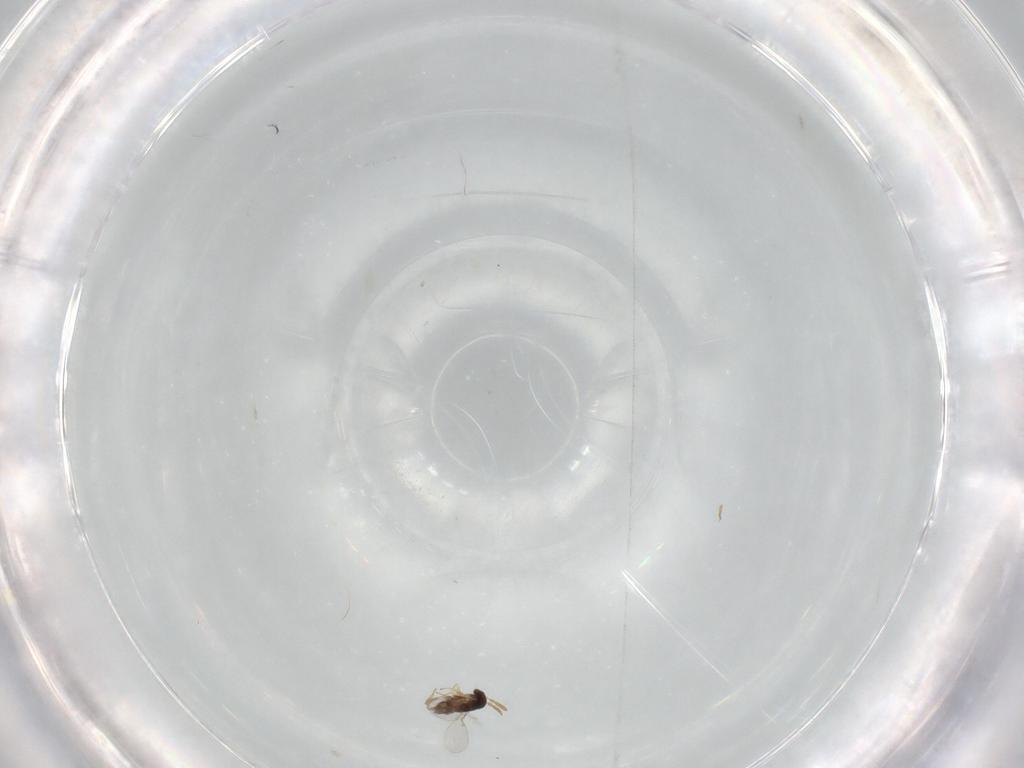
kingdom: Animalia
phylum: Arthropoda
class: Insecta
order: Hymenoptera
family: Encyrtidae
